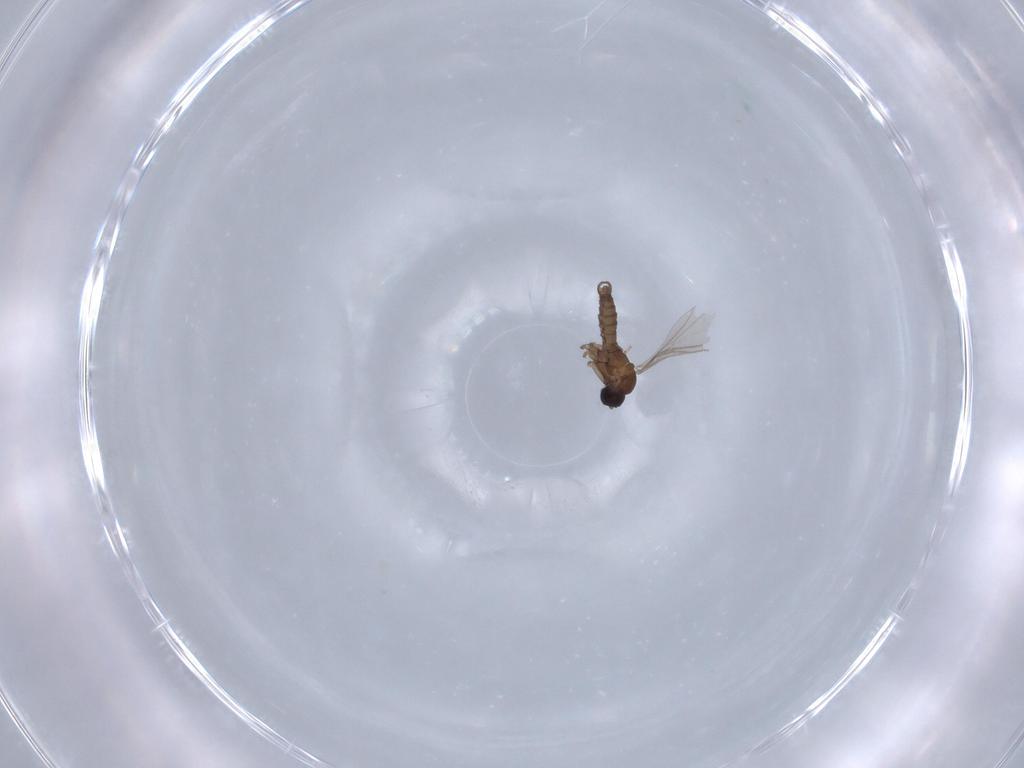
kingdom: Animalia
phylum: Arthropoda
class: Insecta
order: Diptera
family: Sciaridae
